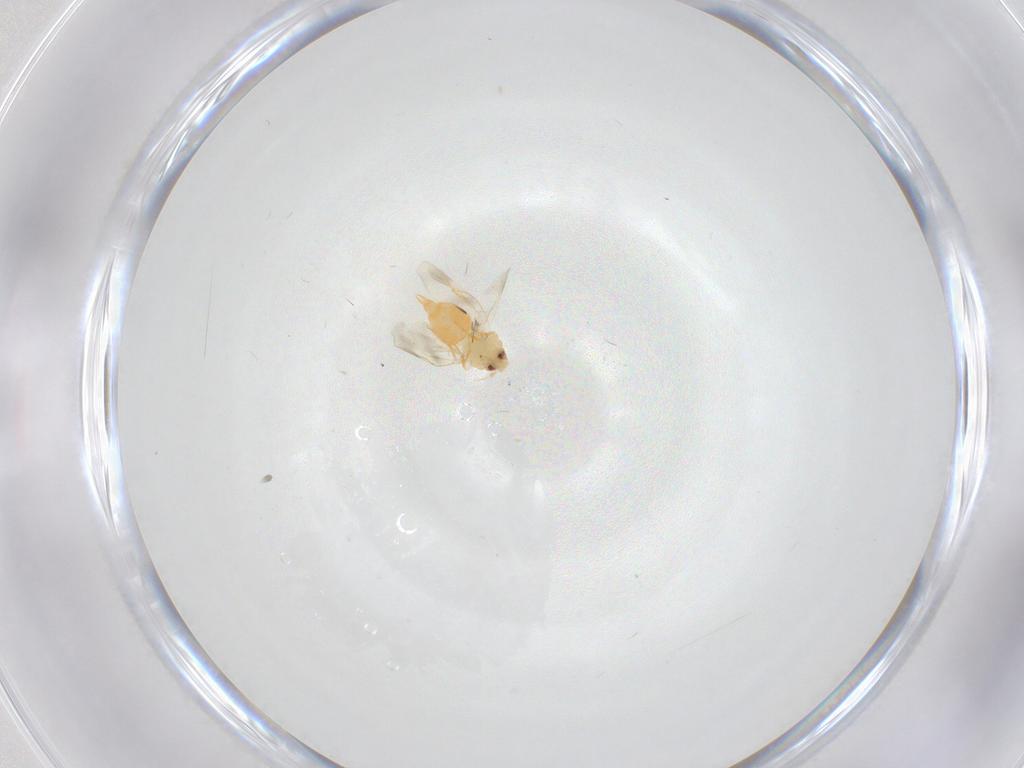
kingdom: Animalia
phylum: Arthropoda
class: Insecta
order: Hemiptera
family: Aleyrodidae
